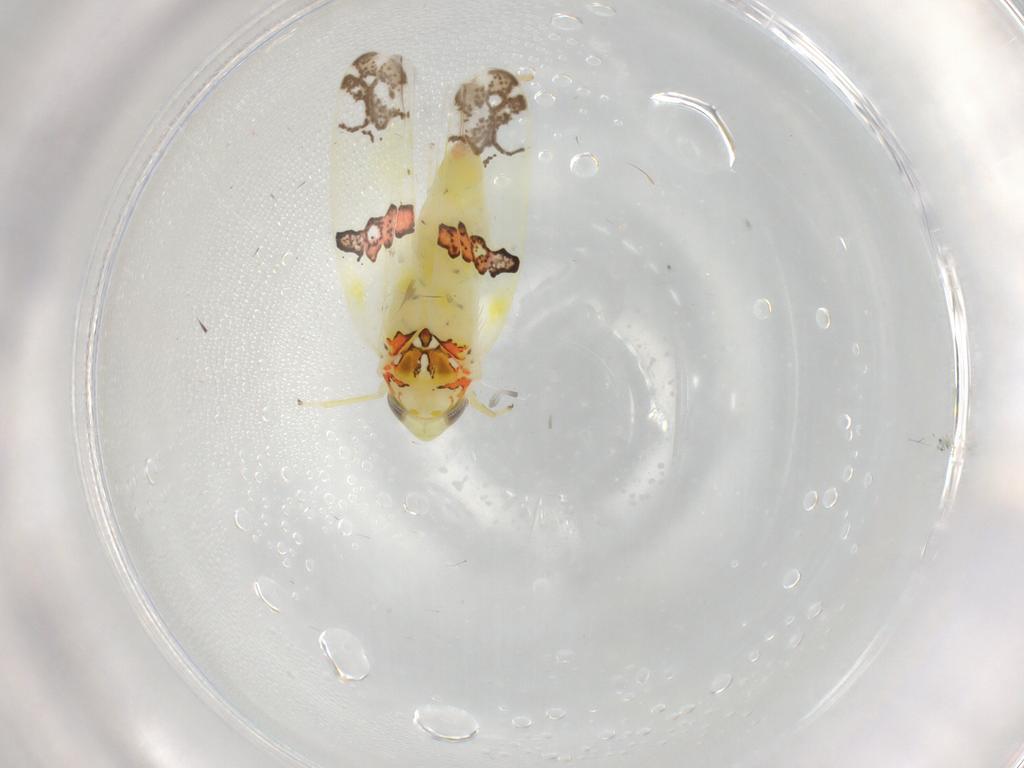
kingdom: Animalia
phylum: Arthropoda
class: Insecta
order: Hemiptera
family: Cicadellidae
